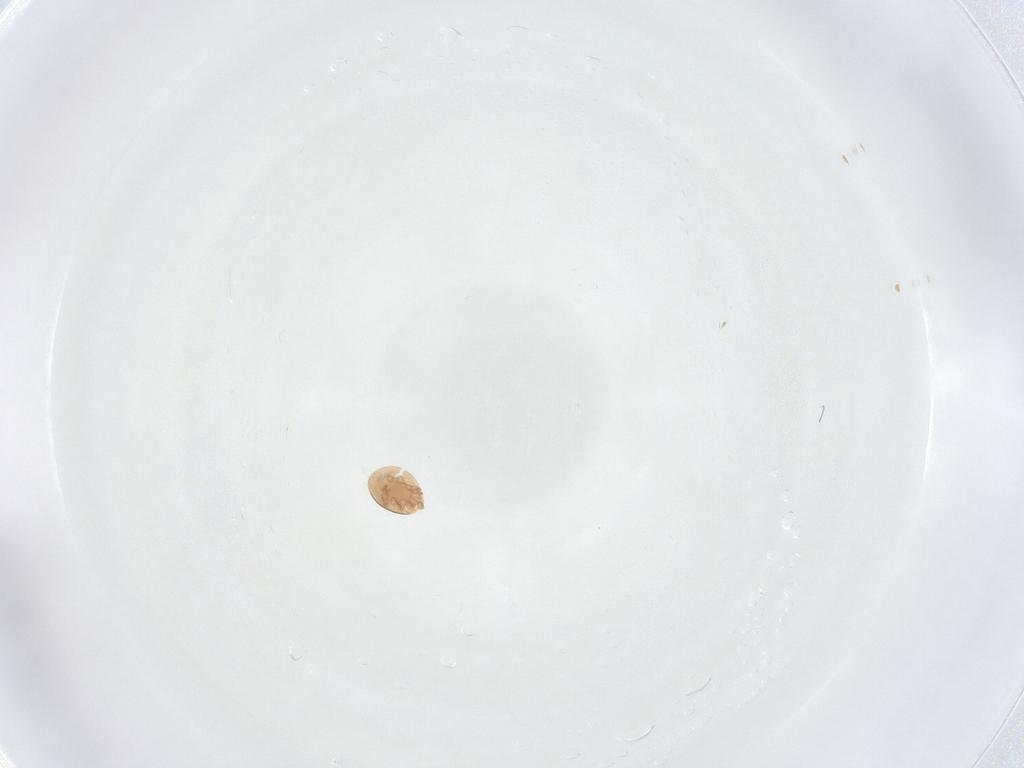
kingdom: Animalia
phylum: Arthropoda
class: Arachnida
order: Mesostigmata
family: Trematuridae
